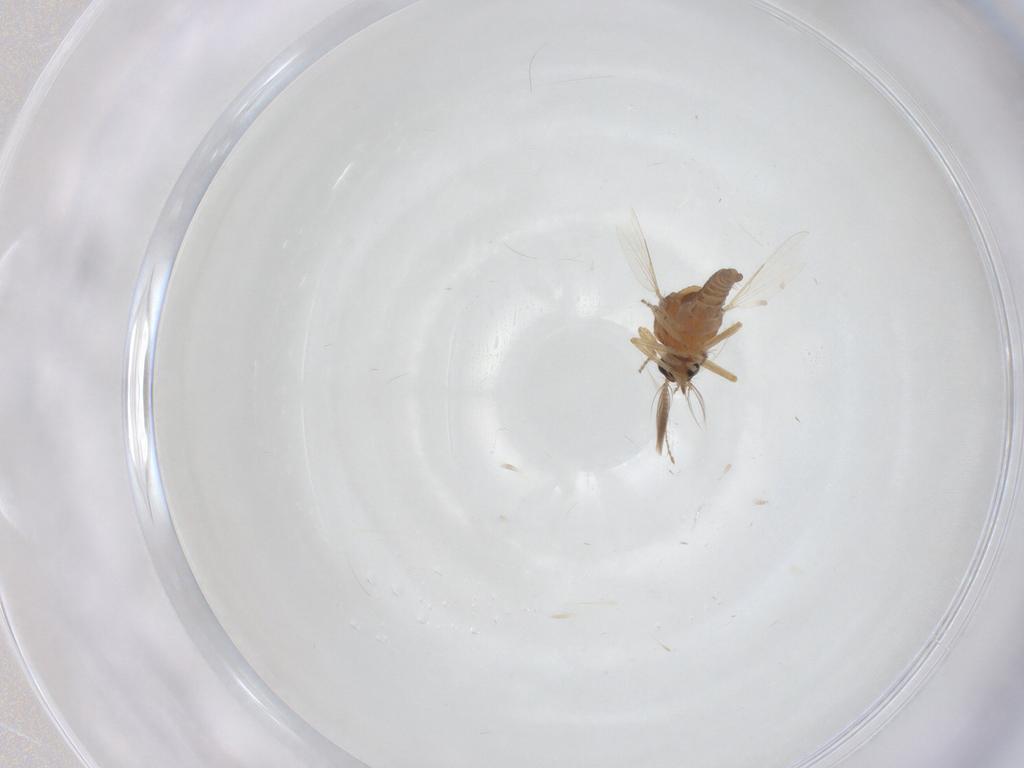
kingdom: Animalia
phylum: Arthropoda
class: Insecta
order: Diptera
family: Ceratopogonidae
